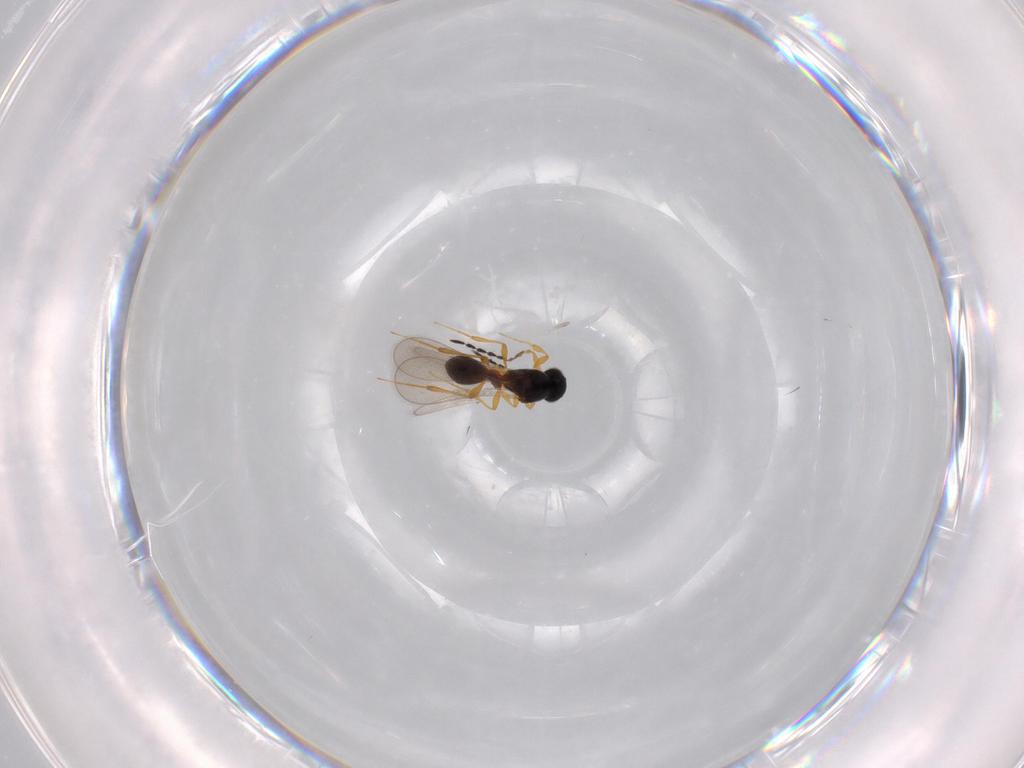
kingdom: Animalia
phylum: Arthropoda
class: Insecta
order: Hymenoptera
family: Platygastridae
